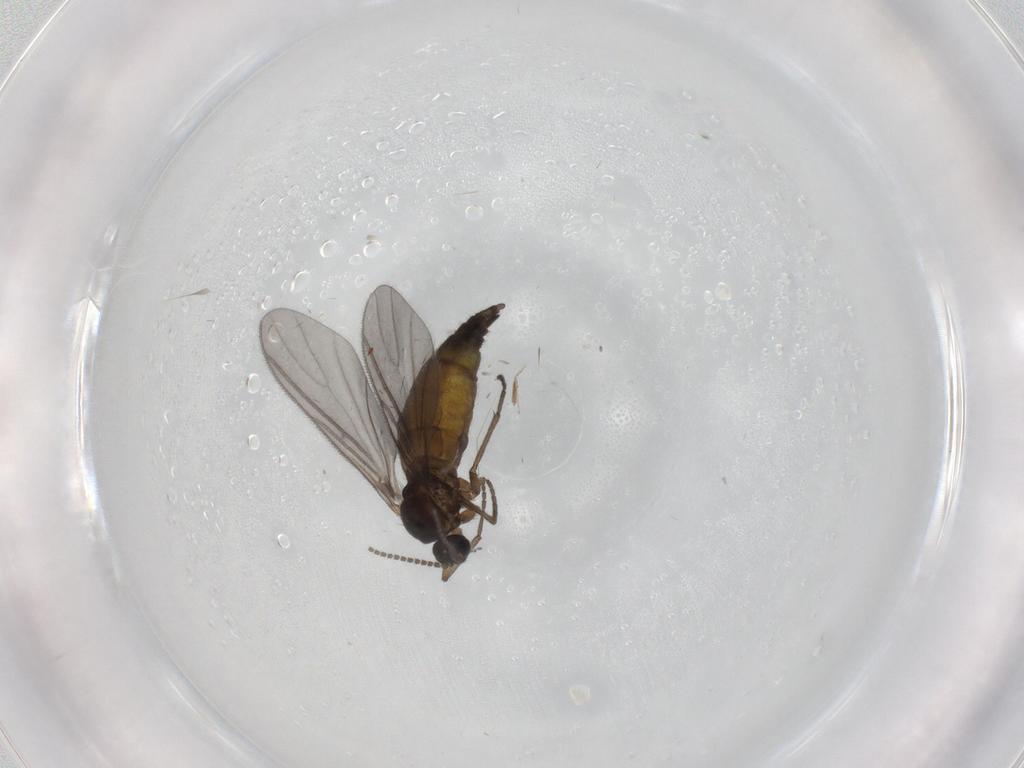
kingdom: Animalia
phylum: Arthropoda
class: Insecta
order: Diptera
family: Sciaridae
